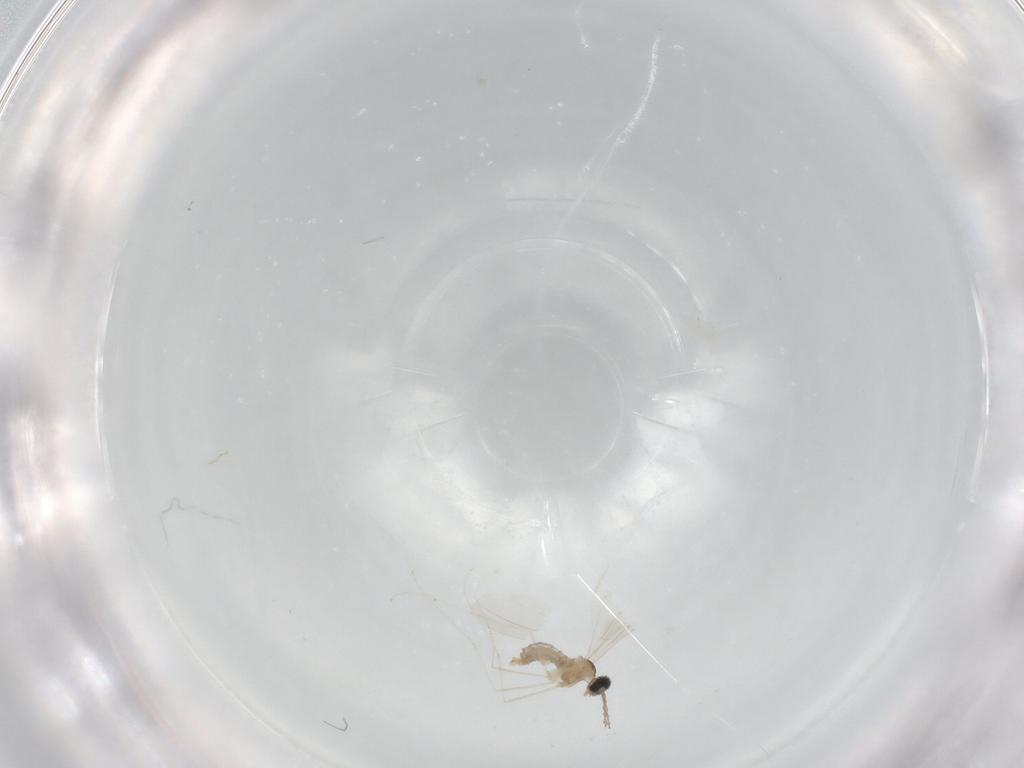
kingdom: Animalia
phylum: Arthropoda
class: Insecta
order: Diptera
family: Cecidomyiidae
